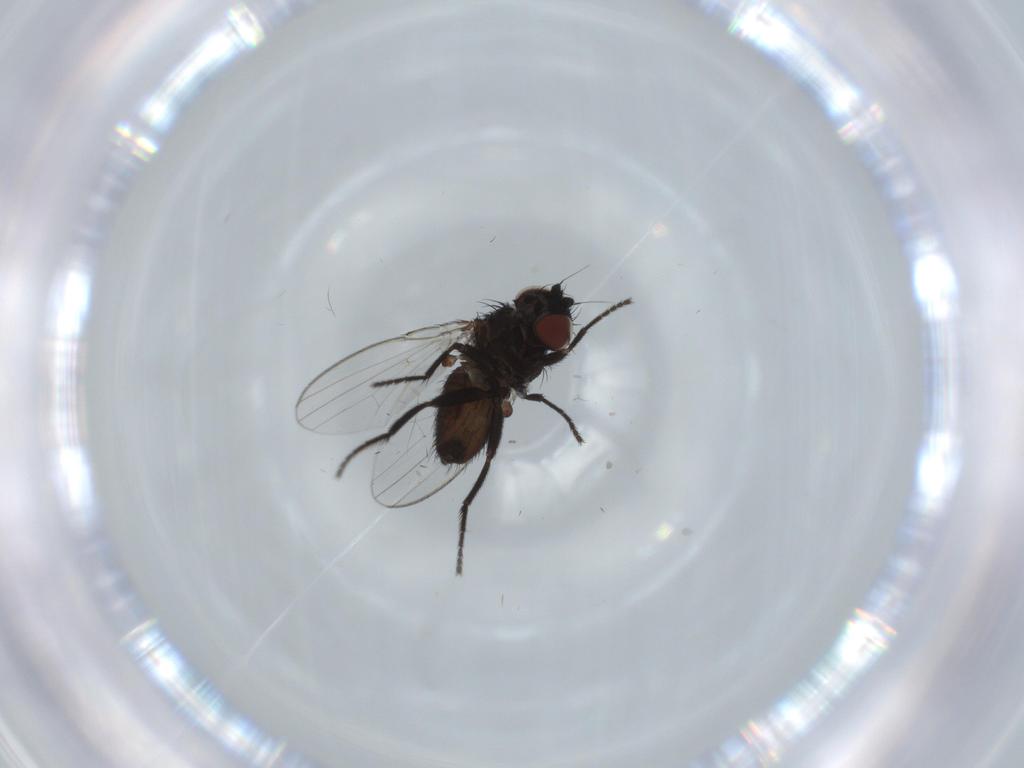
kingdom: Animalia
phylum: Arthropoda
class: Insecta
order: Diptera
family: Milichiidae
